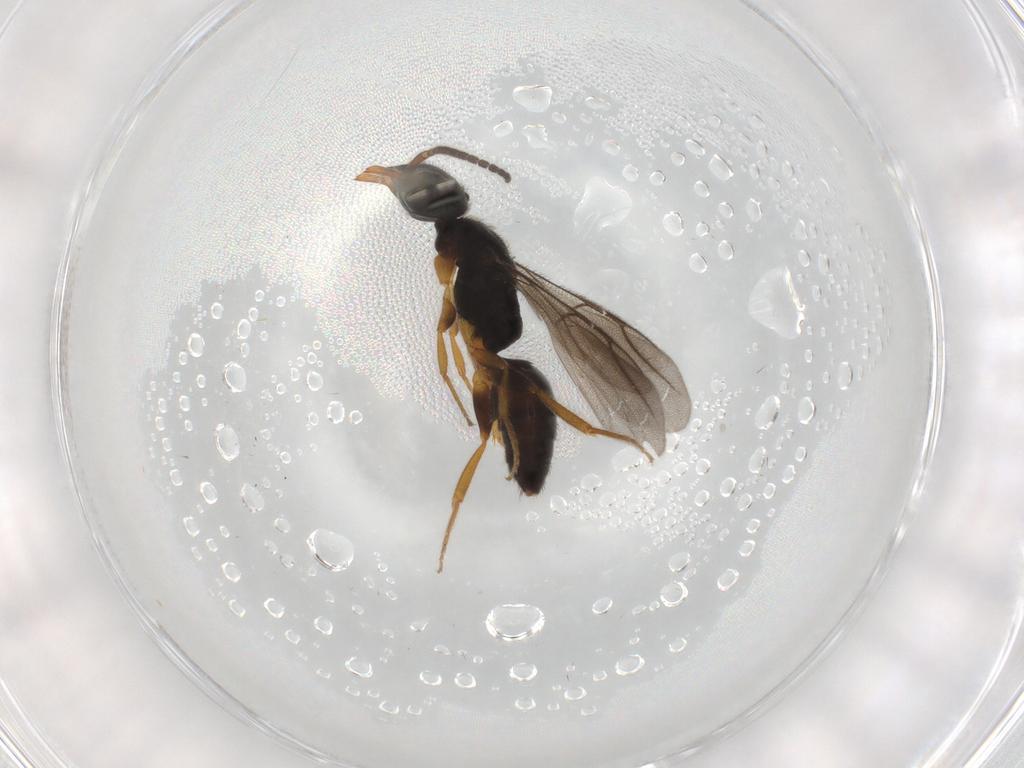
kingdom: Animalia
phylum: Arthropoda
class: Insecta
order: Hymenoptera
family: Bethylidae
